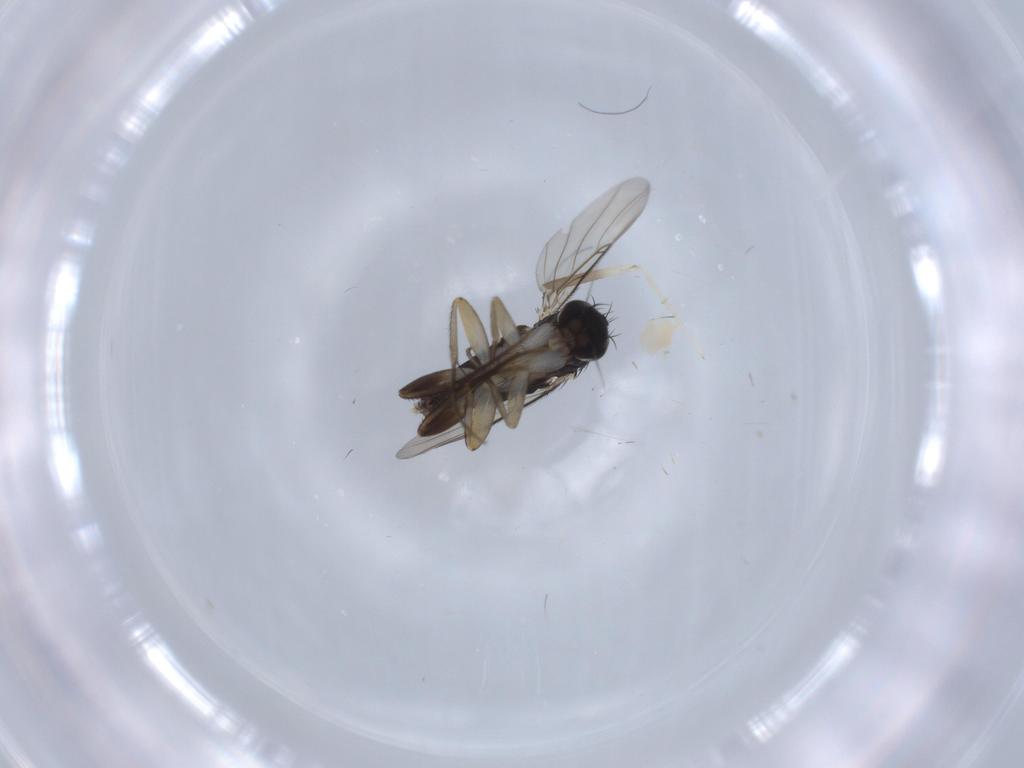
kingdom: Animalia
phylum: Arthropoda
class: Insecta
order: Diptera
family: Phoridae
